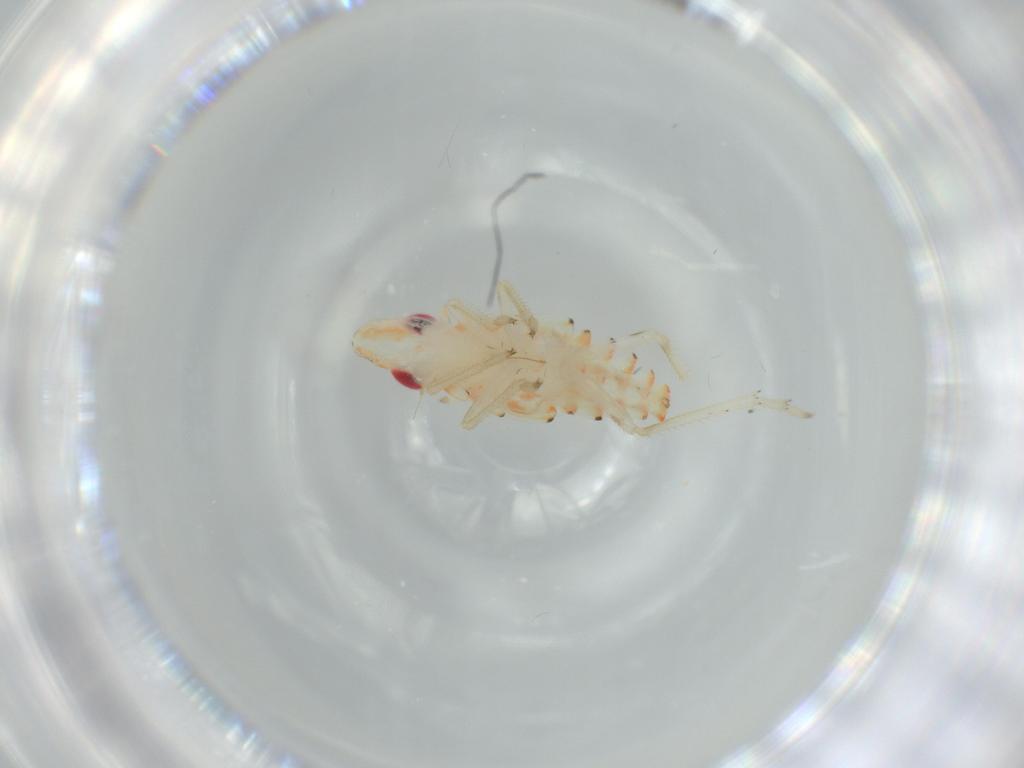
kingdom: Animalia
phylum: Arthropoda
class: Insecta
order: Hemiptera
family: Tropiduchidae
